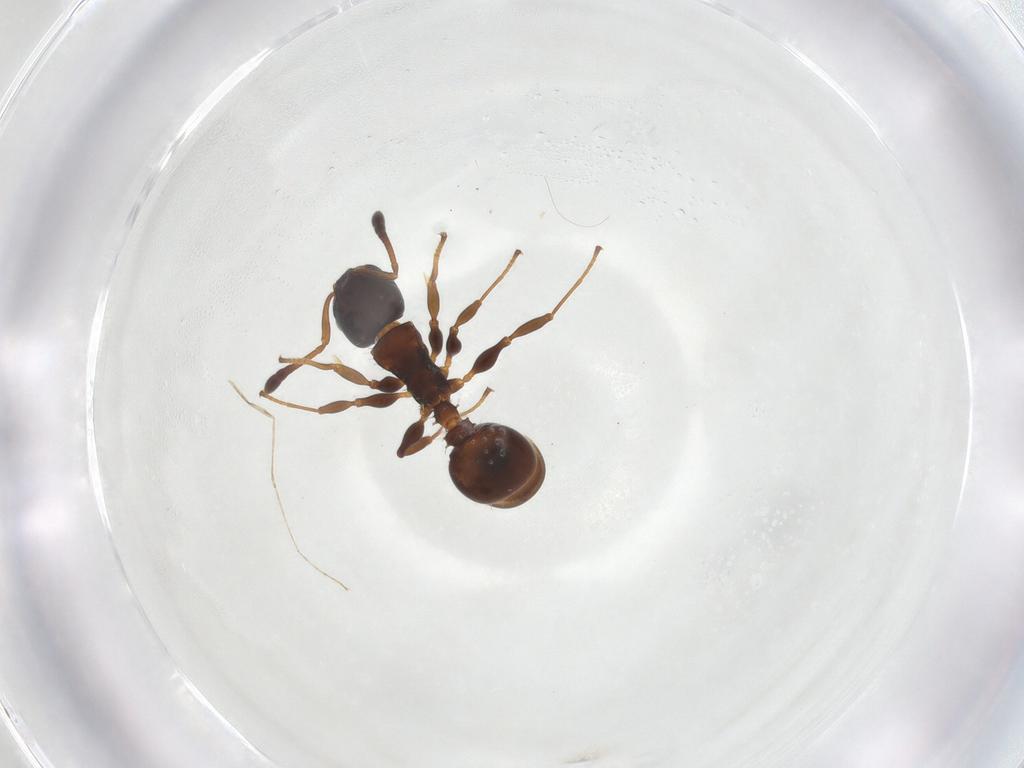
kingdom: Animalia
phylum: Arthropoda
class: Insecta
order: Hymenoptera
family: Formicidae
